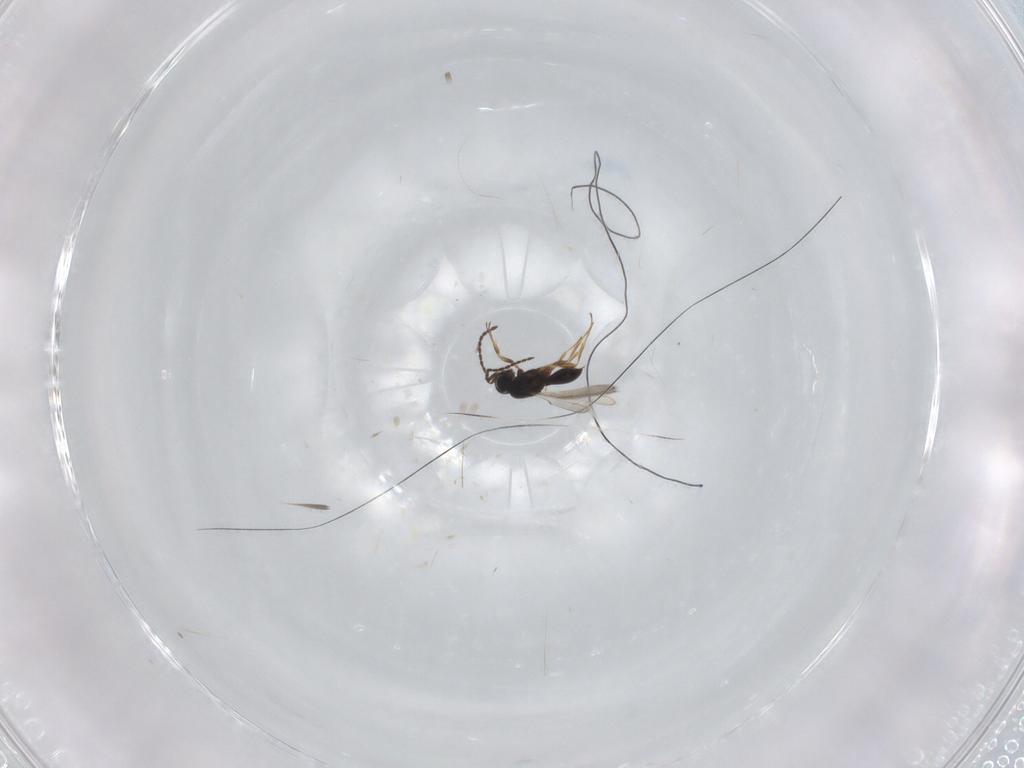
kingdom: Animalia
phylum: Arthropoda
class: Insecta
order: Hymenoptera
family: Scelionidae
